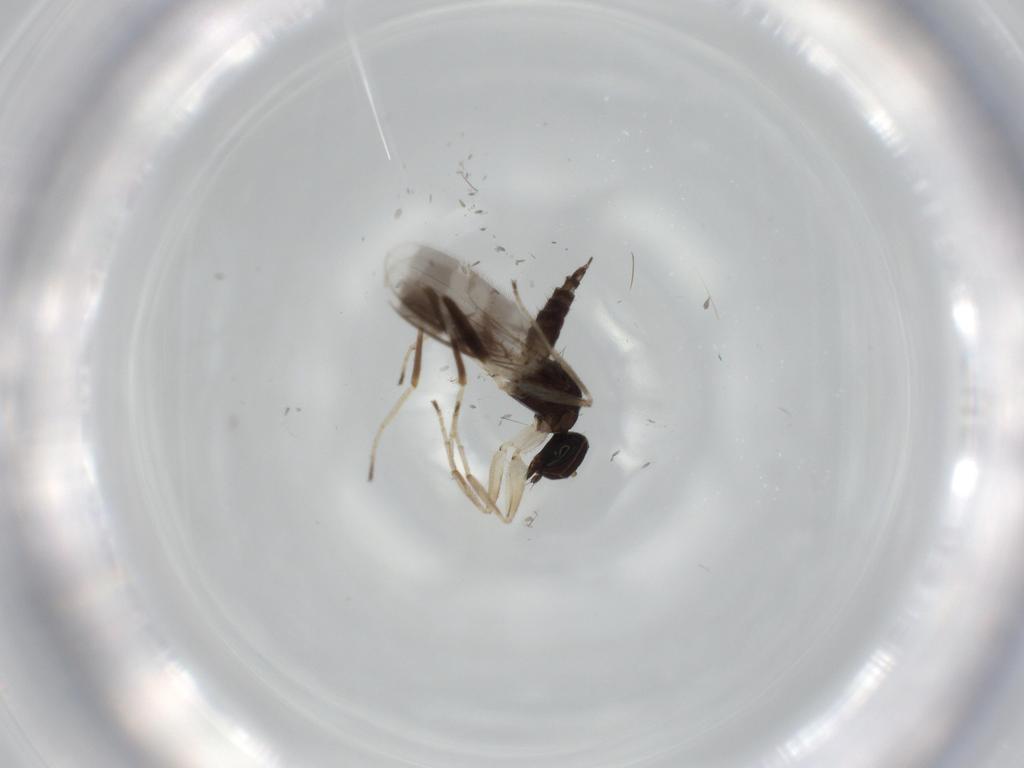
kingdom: Animalia
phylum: Arthropoda
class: Insecta
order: Diptera
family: Hybotidae
